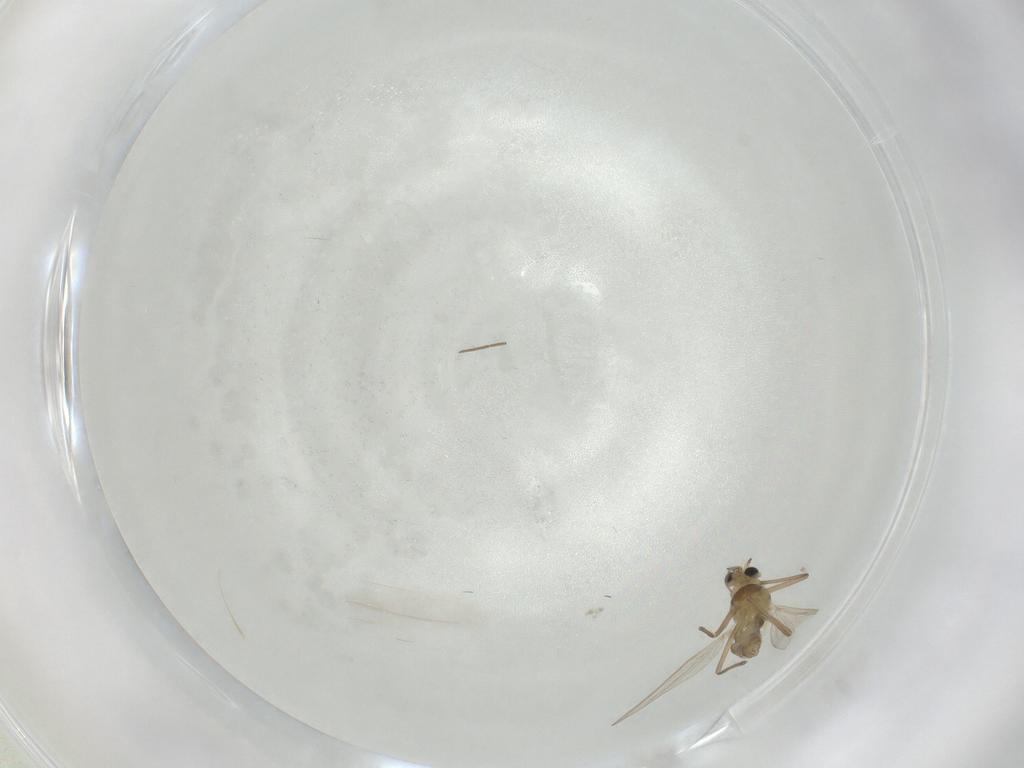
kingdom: Animalia
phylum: Arthropoda
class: Insecta
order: Diptera
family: Chironomidae
